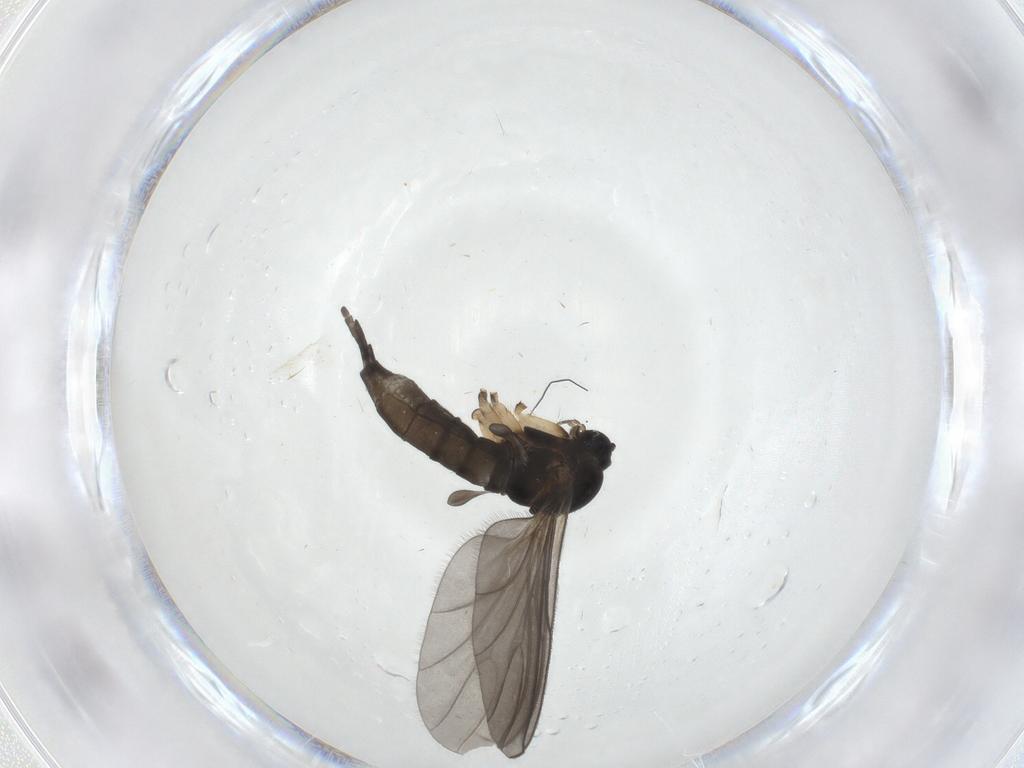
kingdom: Animalia
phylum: Arthropoda
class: Insecta
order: Diptera
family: Sciaridae
